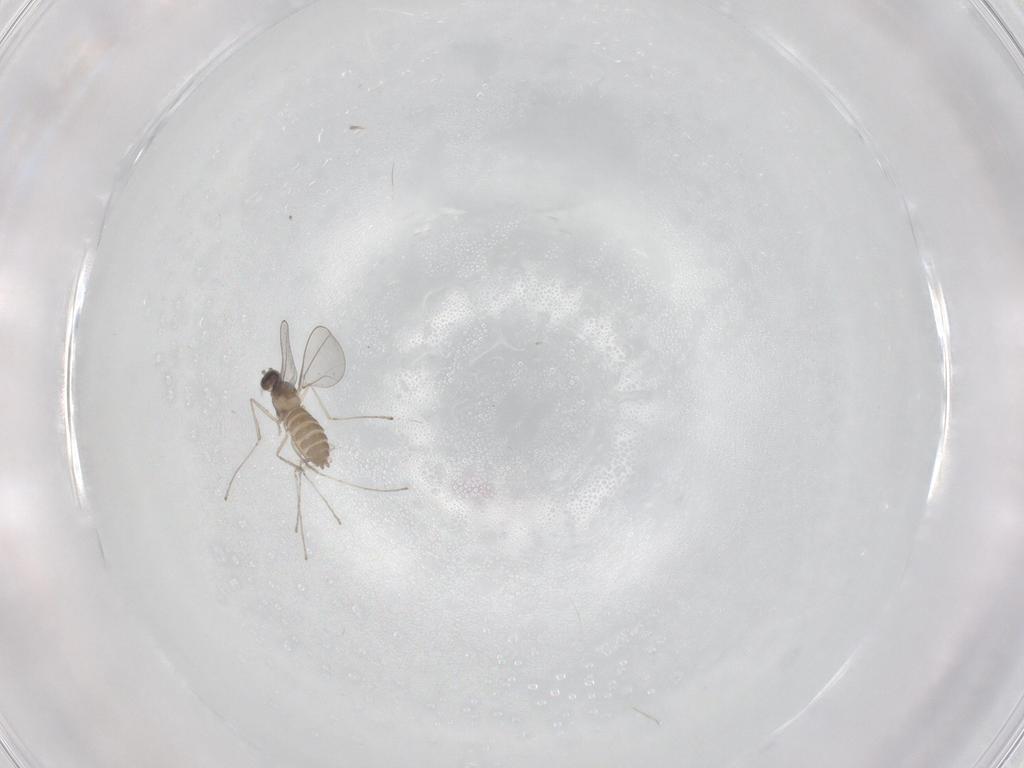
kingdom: Animalia
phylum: Arthropoda
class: Insecta
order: Diptera
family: Cecidomyiidae
